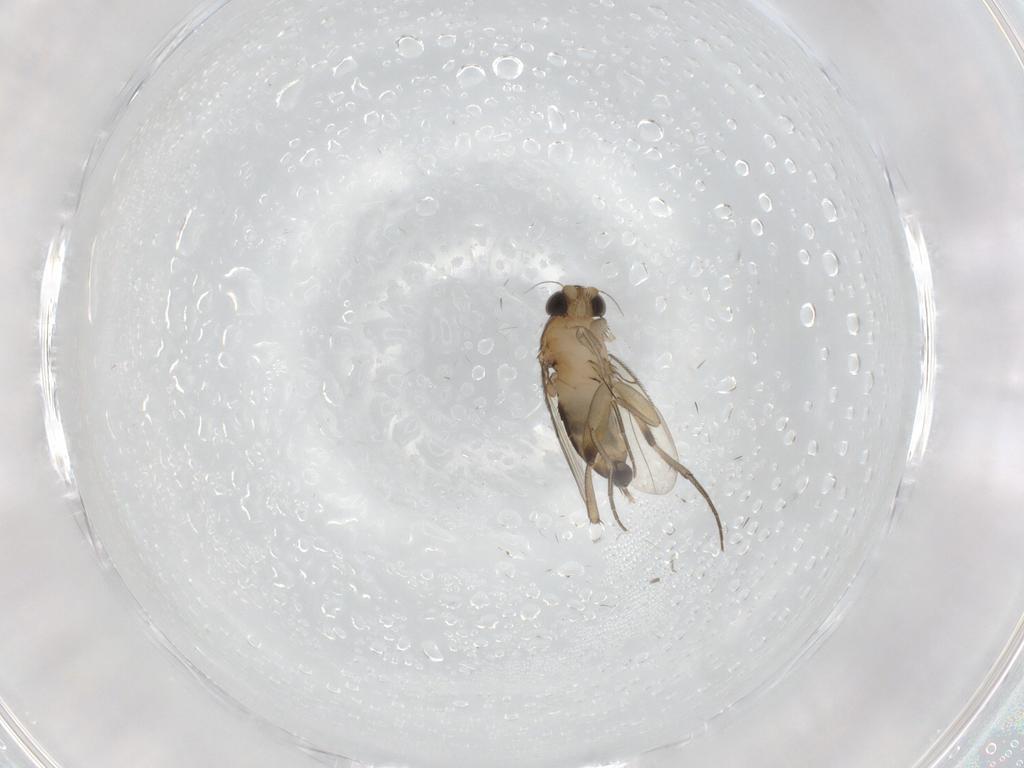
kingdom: Animalia
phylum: Arthropoda
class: Insecta
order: Diptera
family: Phoridae
